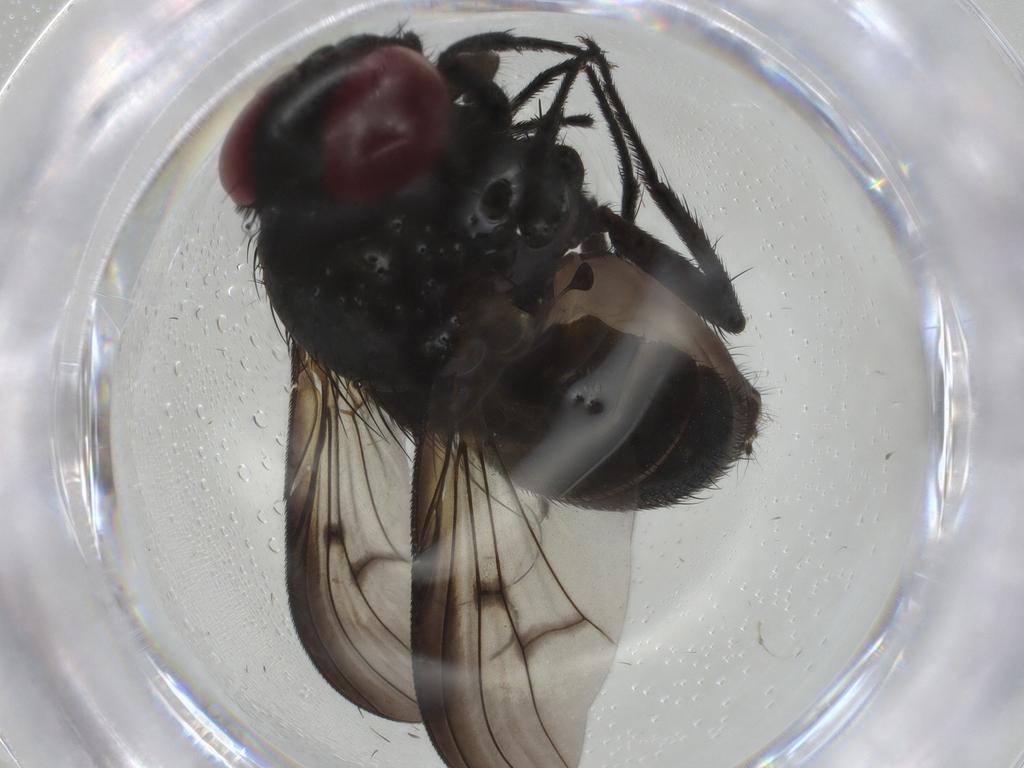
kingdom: Animalia
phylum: Arthropoda
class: Insecta
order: Diptera
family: Fannia
